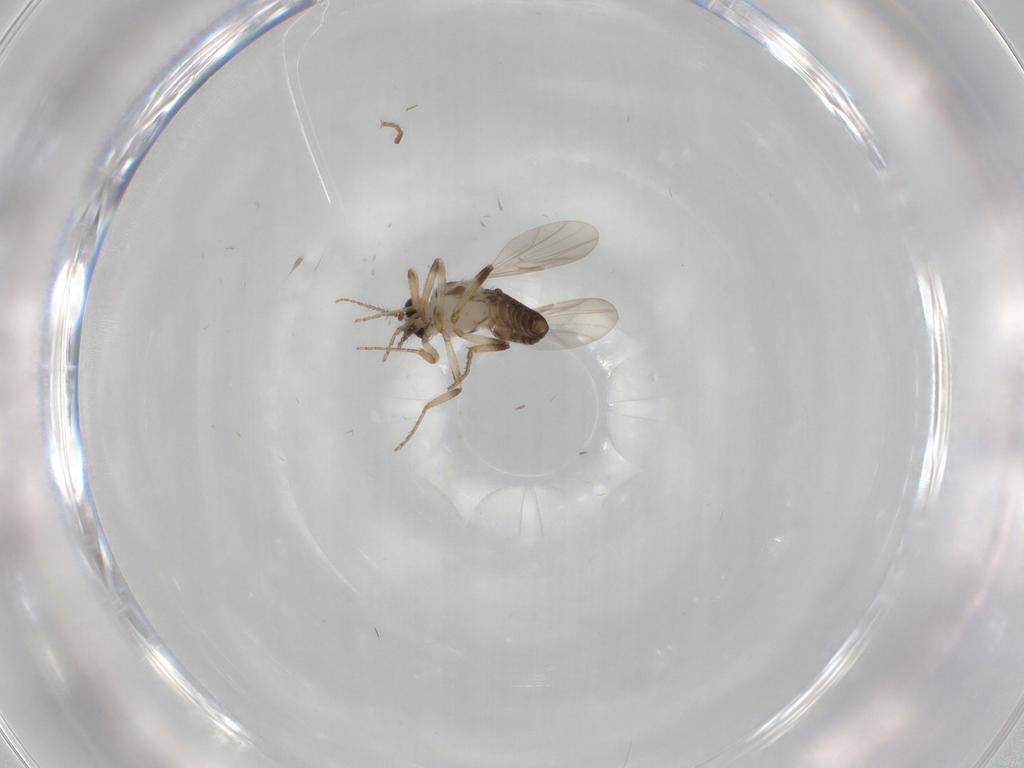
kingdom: Animalia
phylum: Arthropoda
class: Insecta
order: Diptera
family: Ceratopogonidae
